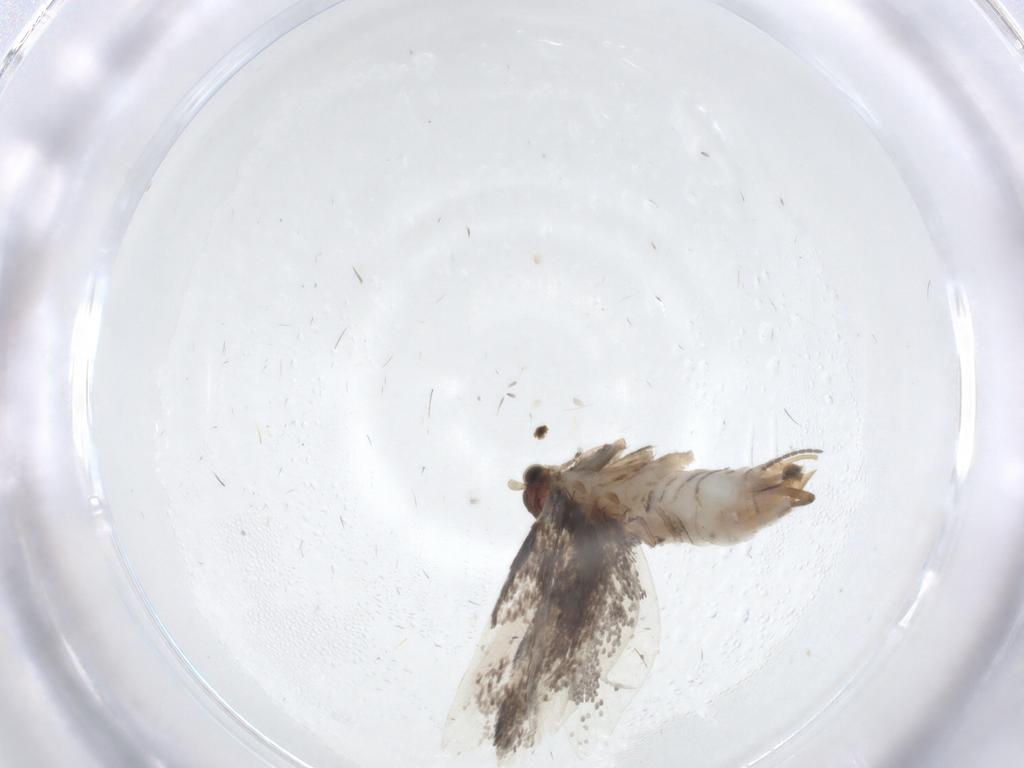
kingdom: Animalia
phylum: Arthropoda
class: Insecta
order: Lepidoptera
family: Tineidae
